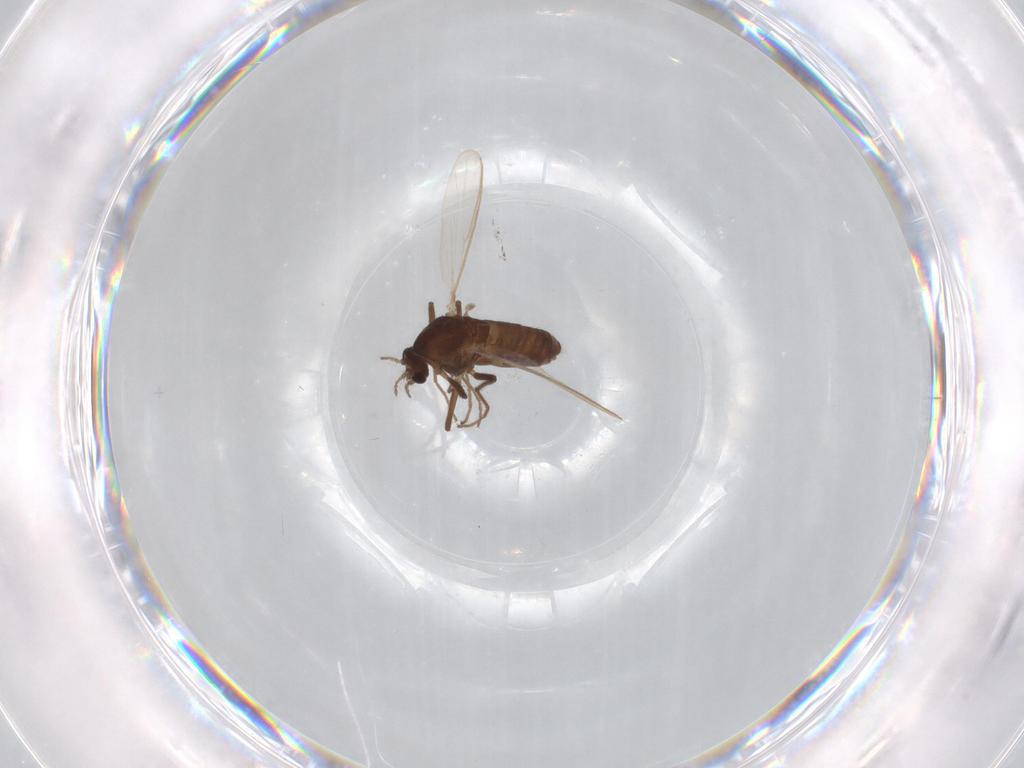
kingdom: Animalia
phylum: Arthropoda
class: Insecta
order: Diptera
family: Chironomidae
